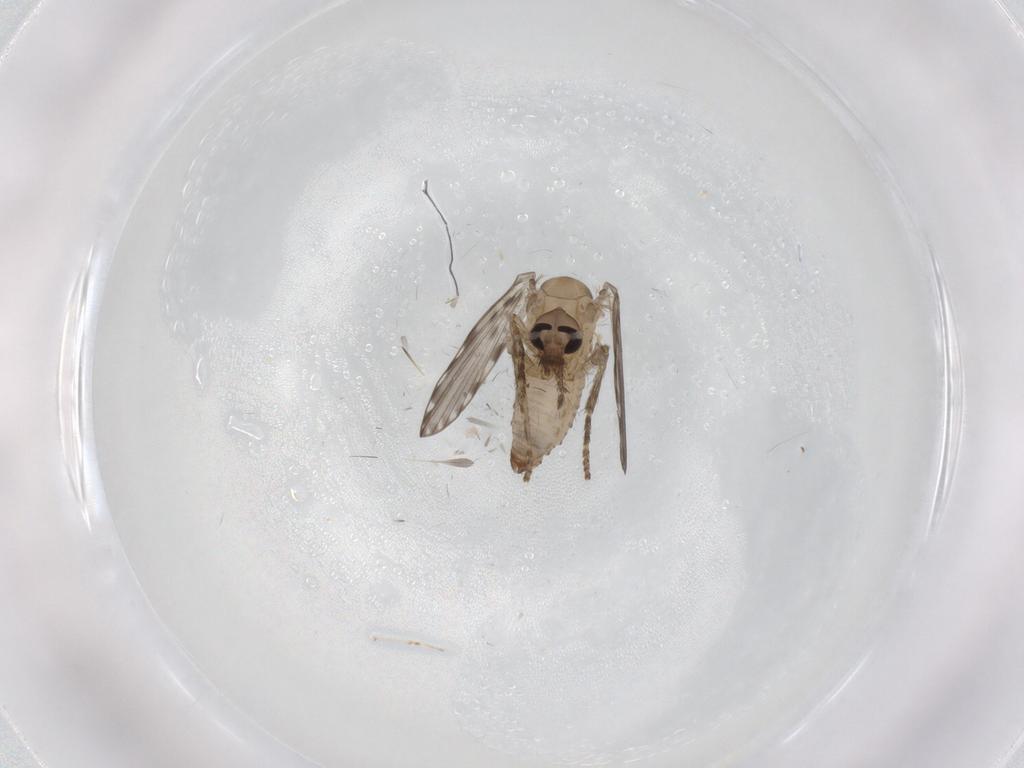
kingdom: Animalia
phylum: Arthropoda
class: Insecta
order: Diptera
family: Psychodidae
